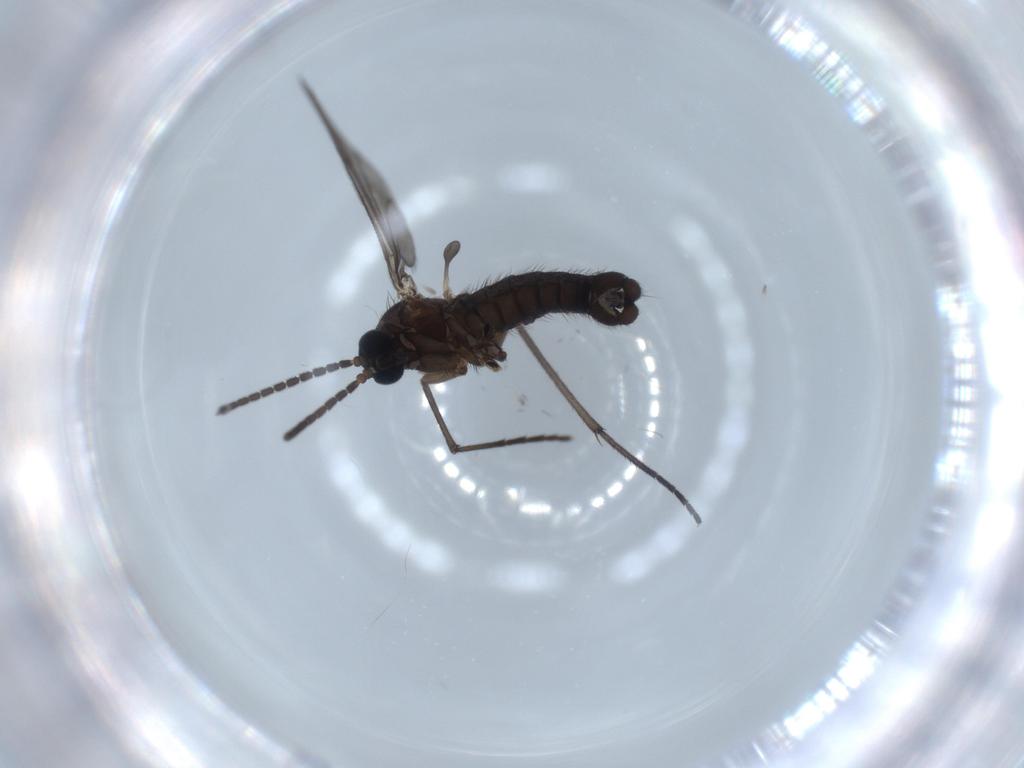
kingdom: Animalia
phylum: Arthropoda
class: Insecta
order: Diptera
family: Sciaridae
